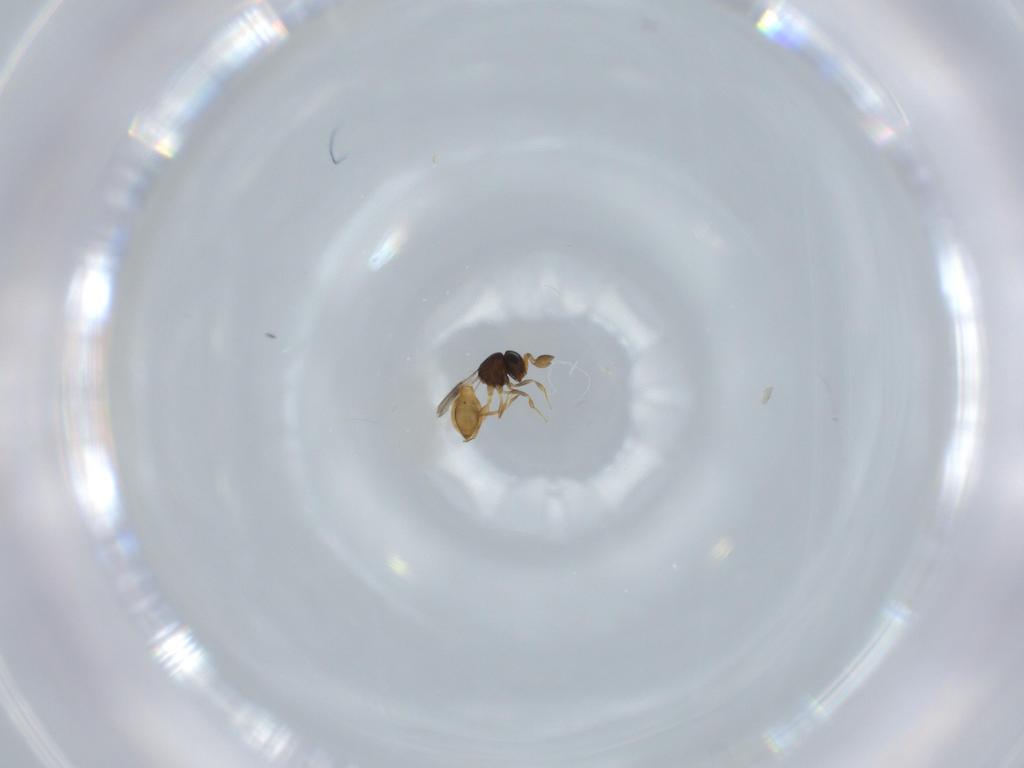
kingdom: Animalia
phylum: Arthropoda
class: Insecta
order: Hymenoptera
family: Scelionidae
